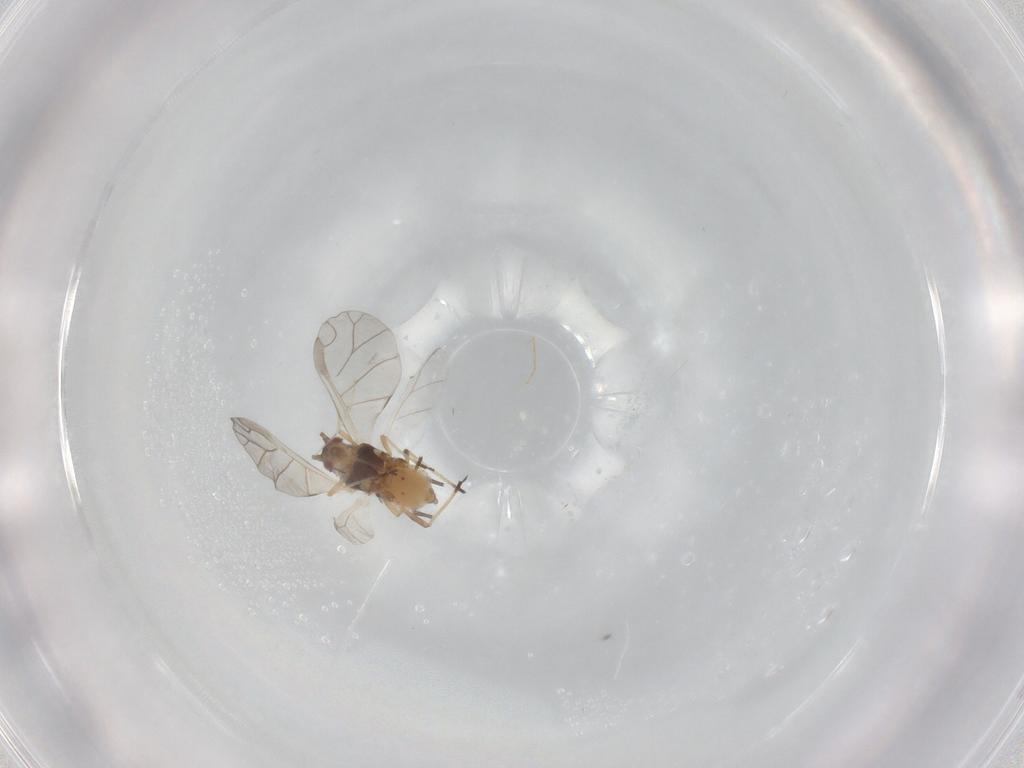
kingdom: Animalia
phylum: Arthropoda
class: Insecta
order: Hemiptera
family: Aphididae
